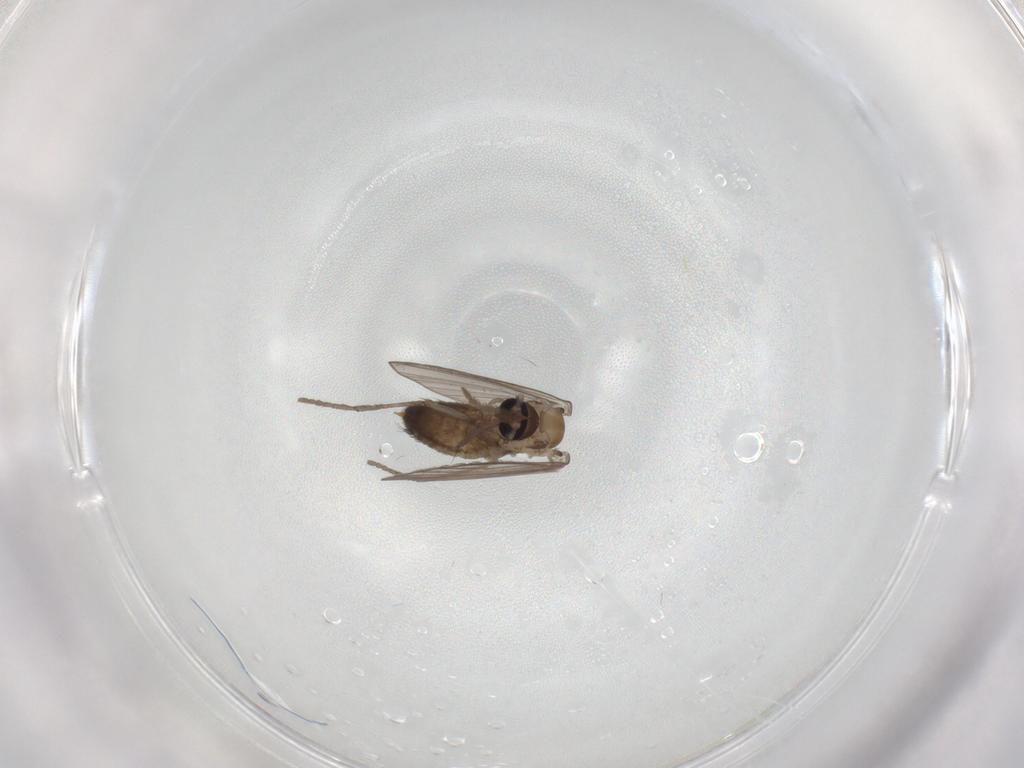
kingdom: Animalia
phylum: Arthropoda
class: Insecta
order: Diptera
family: Psychodidae
